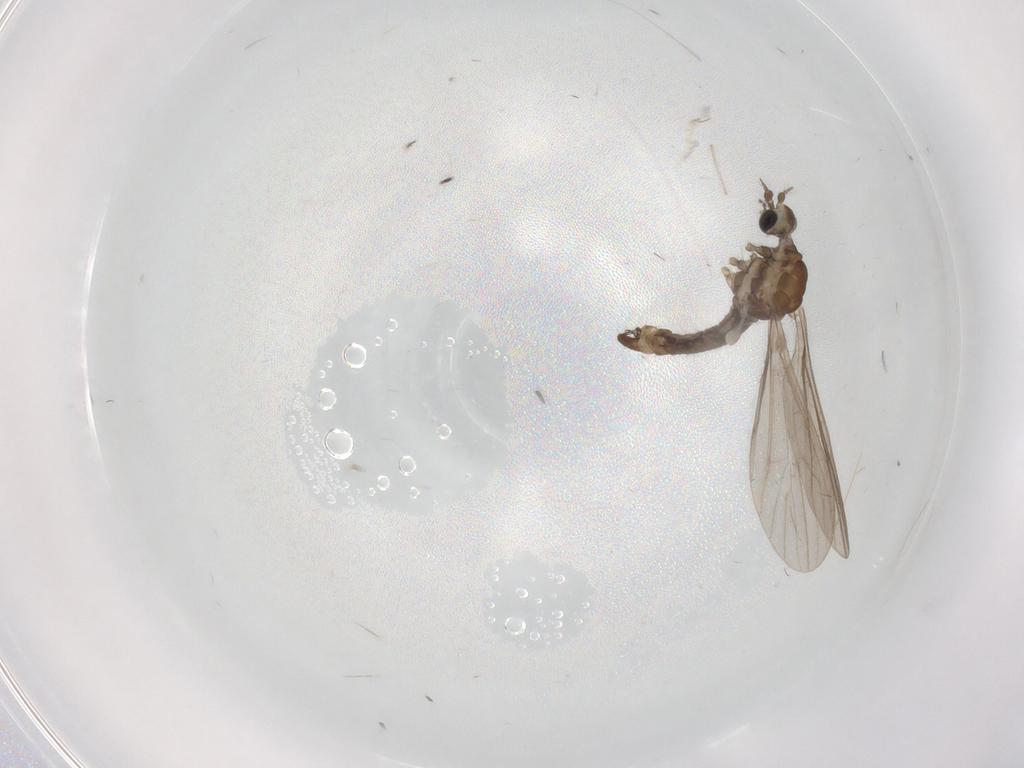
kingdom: Animalia
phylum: Arthropoda
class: Insecta
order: Diptera
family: Limoniidae
